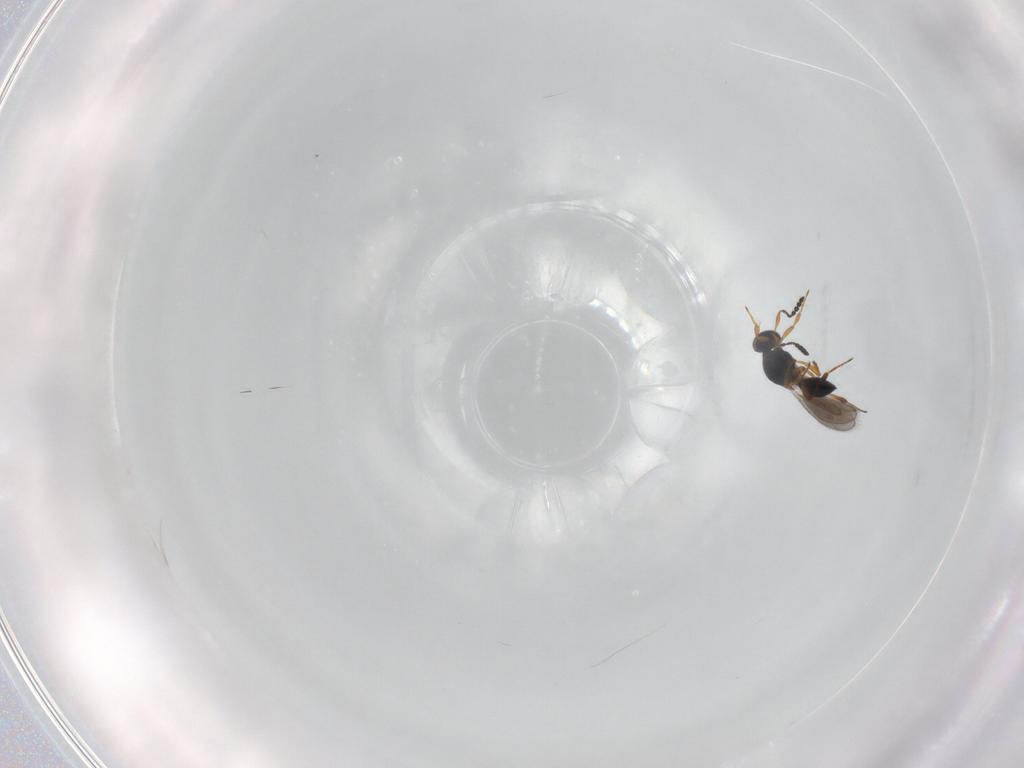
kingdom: Animalia
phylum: Arthropoda
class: Insecta
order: Hymenoptera
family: Platygastridae
